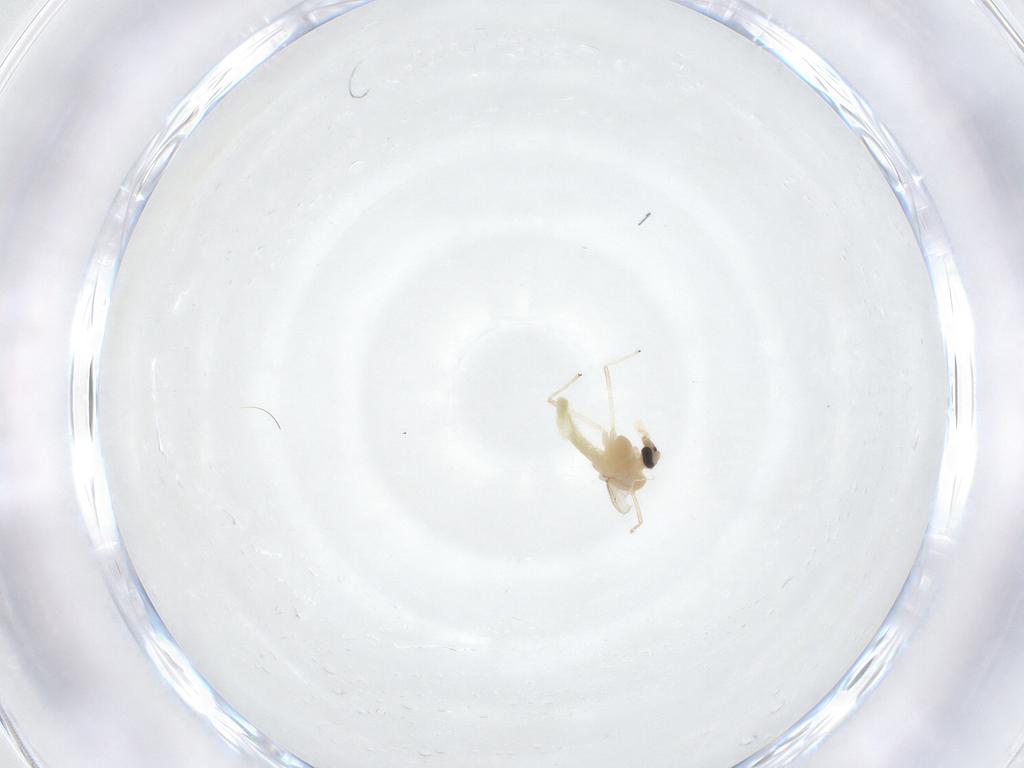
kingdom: Animalia
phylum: Arthropoda
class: Insecta
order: Diptera
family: Chironomidae
